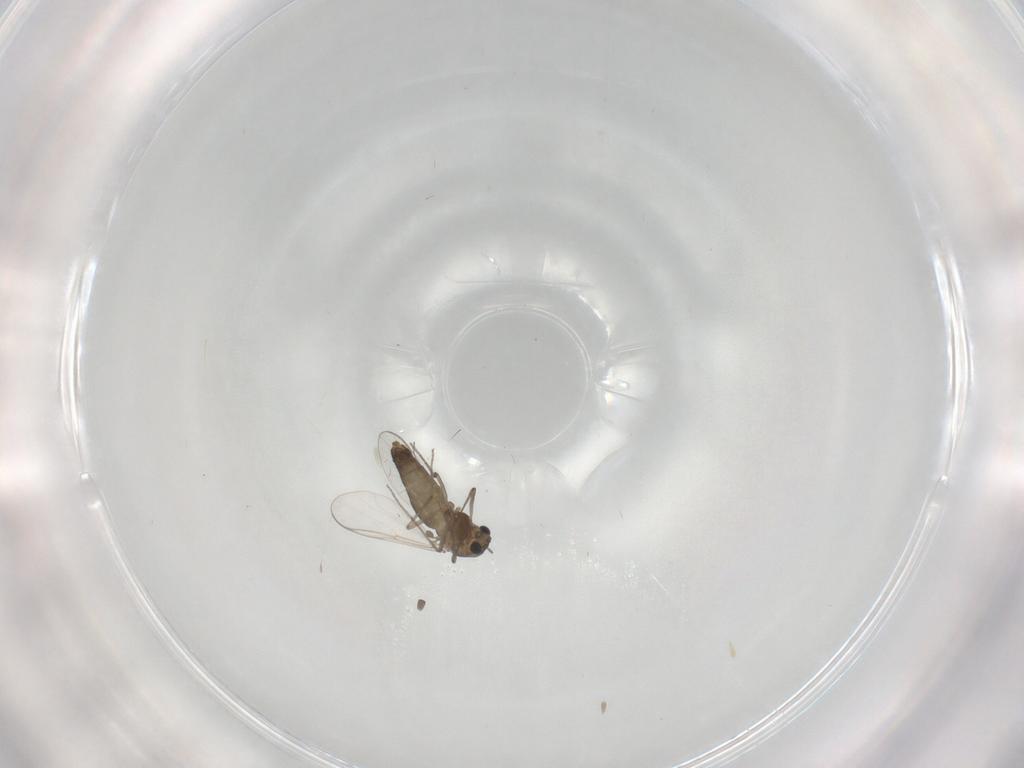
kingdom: Animalia
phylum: Arthropoda
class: Insecta
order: Diptera
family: Chironomidae
